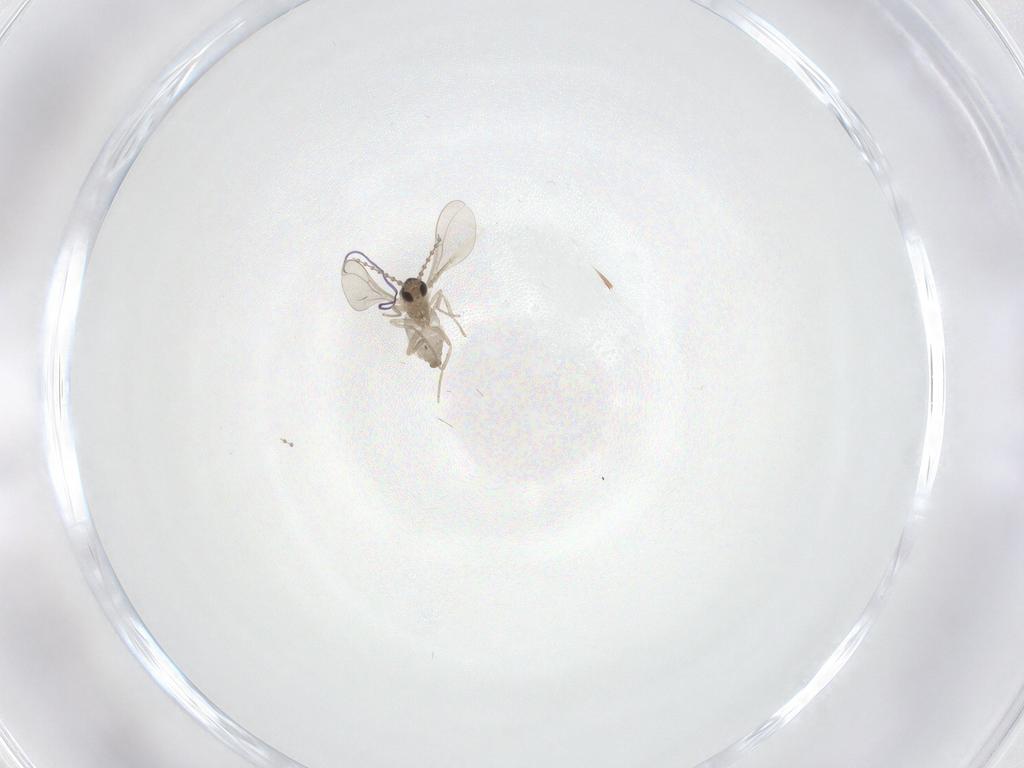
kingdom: Animalia
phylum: Arthropoda
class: Insecta
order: Diptera
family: Cecidomyiidae
